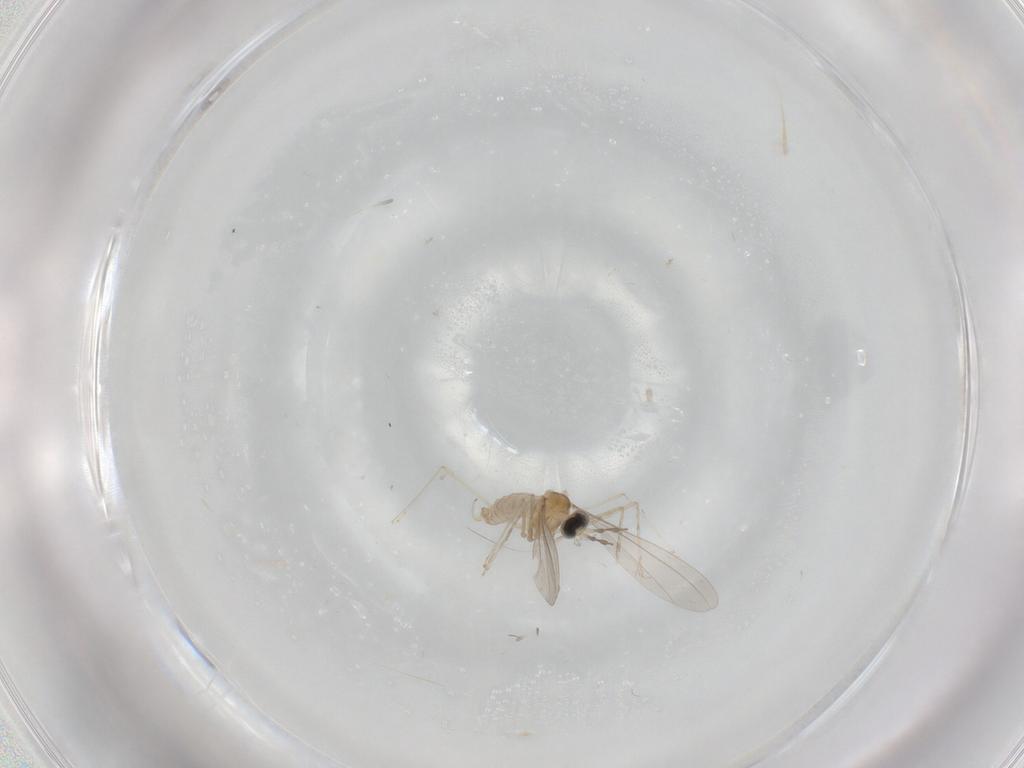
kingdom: Animalia
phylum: Arthropoda
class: Insecta
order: Diptera
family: Cecidomyiidae
